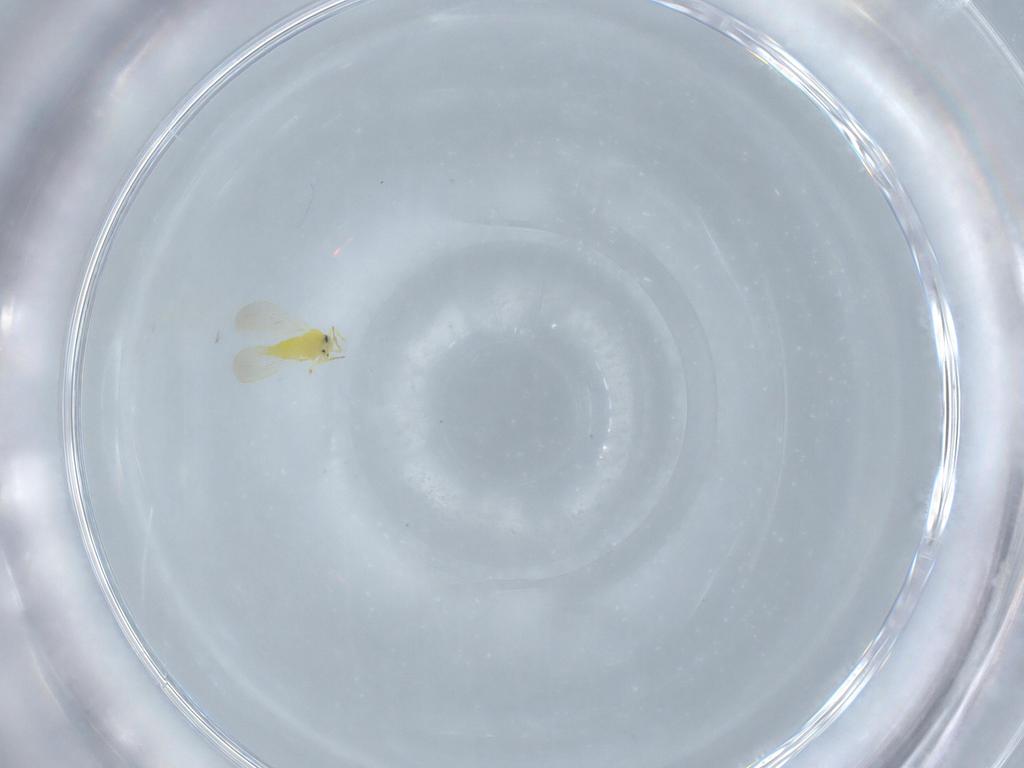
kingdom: Animalia
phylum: Arthropoda
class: Insecta
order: Hemiptera
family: Aleyrodidae
